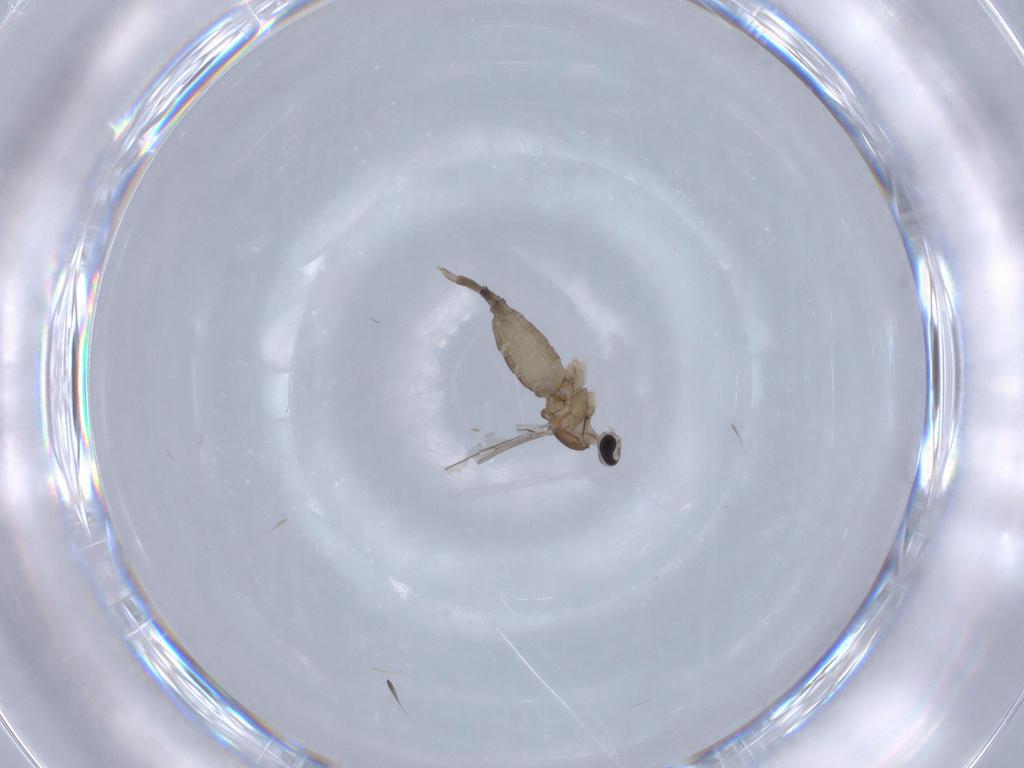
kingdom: Animalia
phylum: Arthropoda
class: Insecta
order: Diptera
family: Cecidomyiidae
